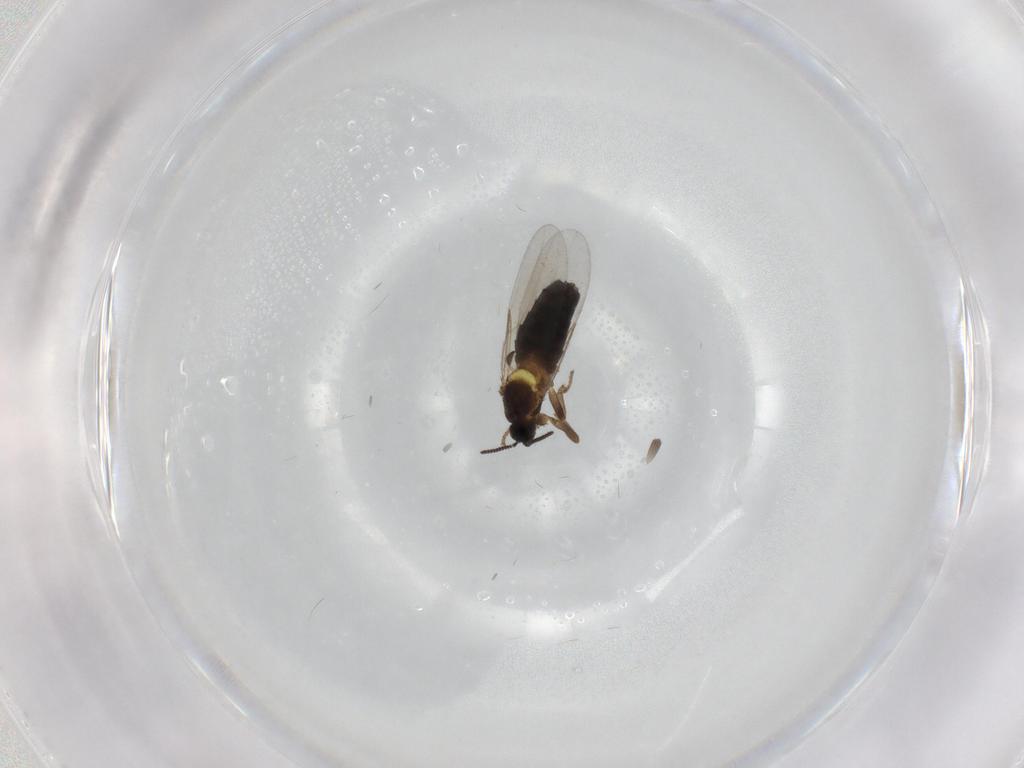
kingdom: Animalia
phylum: Arthropoda
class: Insecta
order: Diptera
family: Scatopsidae
